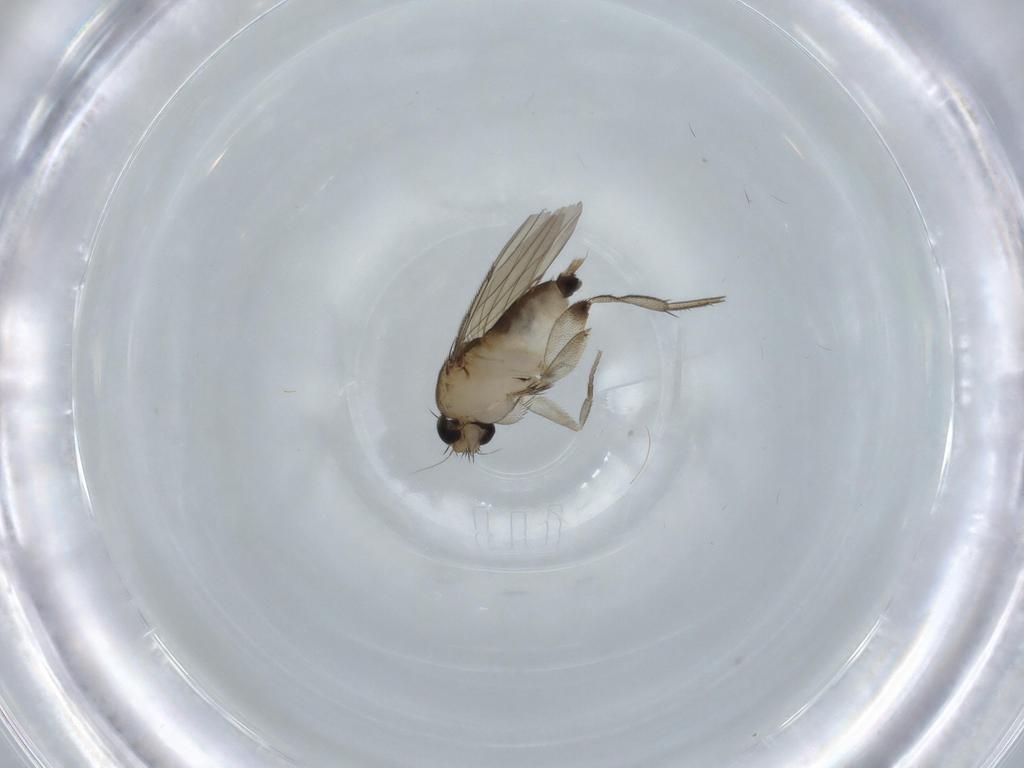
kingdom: Animalia
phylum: Arthropoda
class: Insecta
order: Diptera
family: Phoridae
